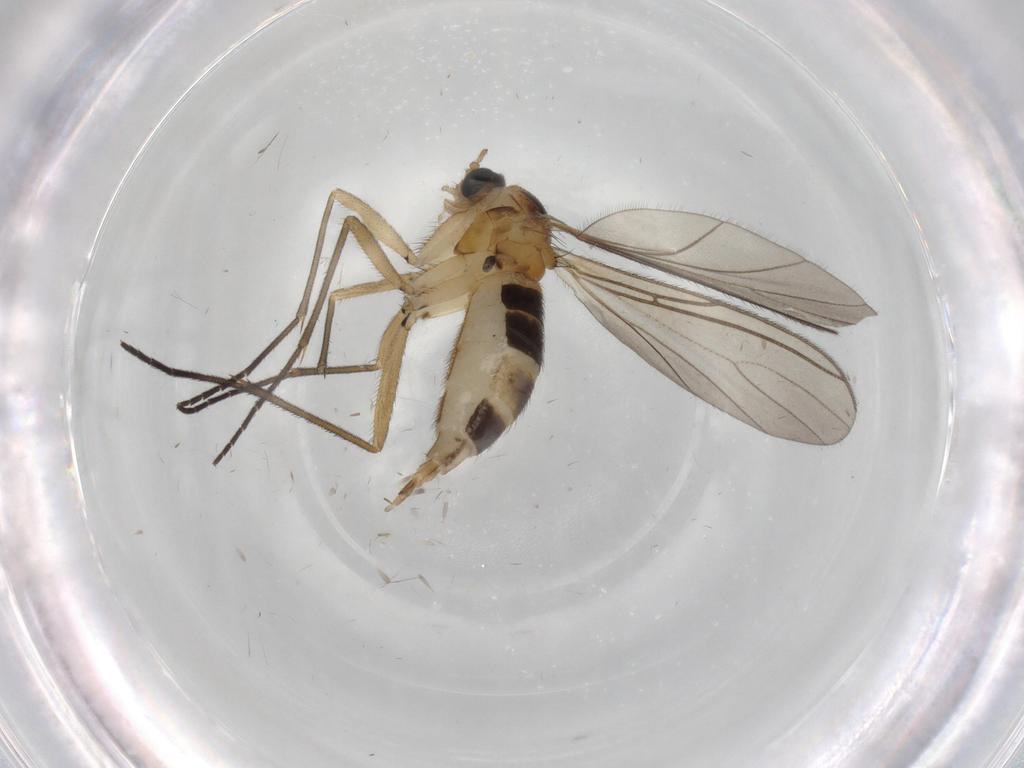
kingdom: Animalia
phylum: Arthropoda
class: Insecta
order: Diptera
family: Sciaridae
